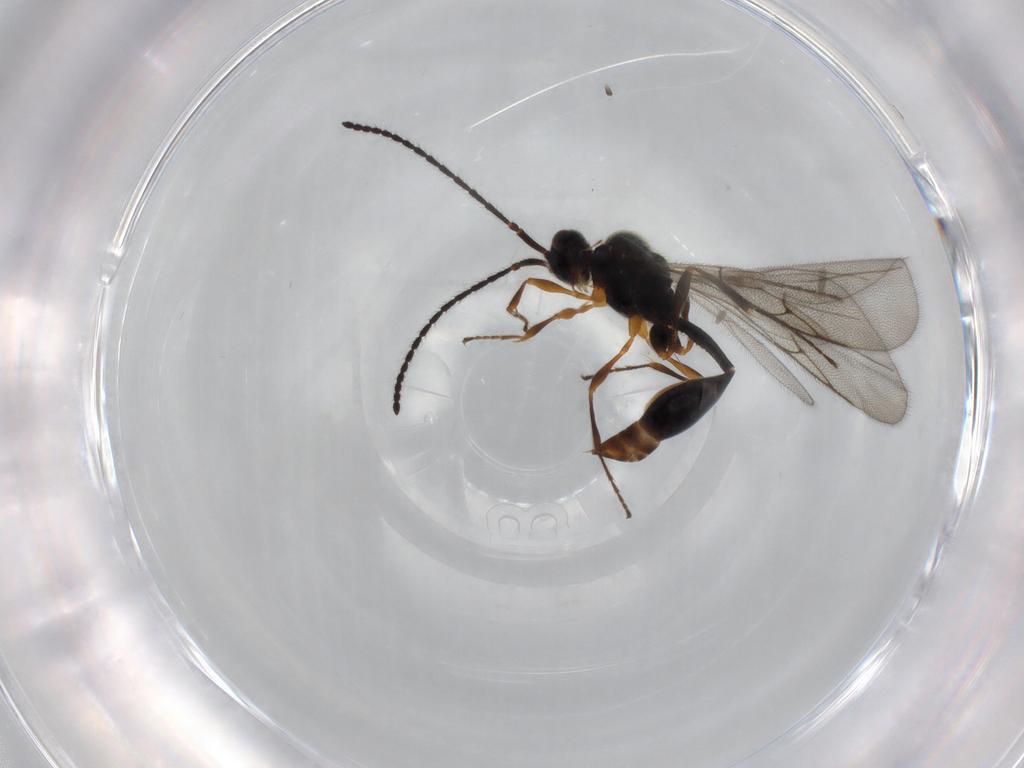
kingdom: Animalia
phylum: Arthropoda
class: Insecta
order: Hymenoptera
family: Diapriidae
